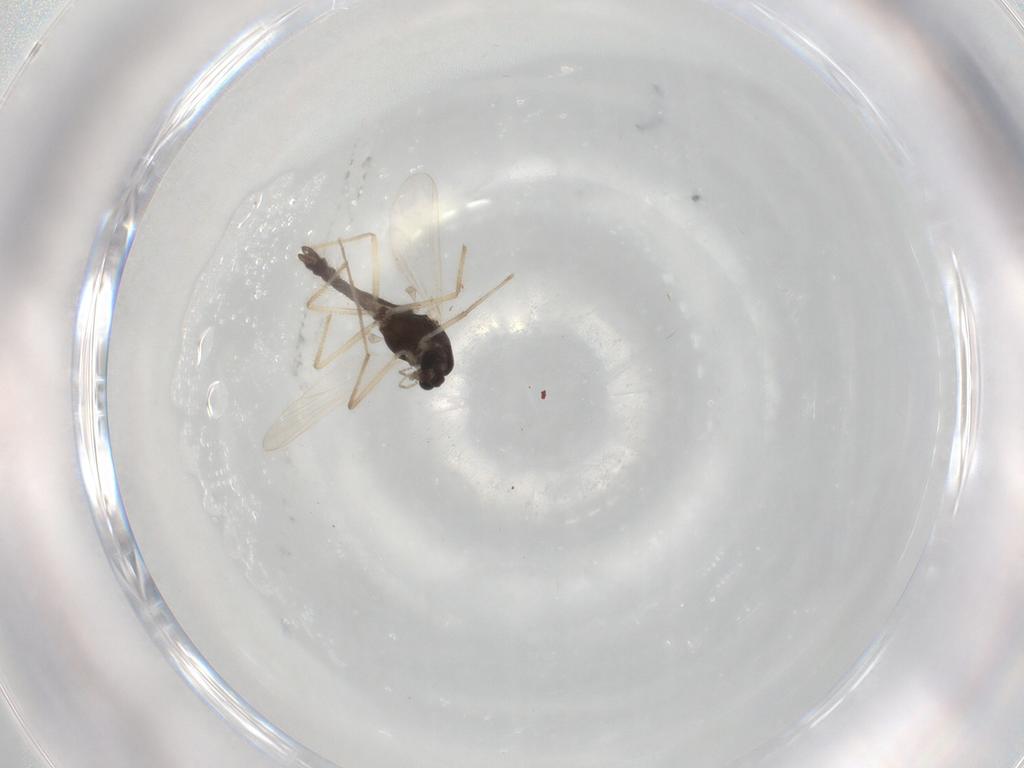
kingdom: Animalia
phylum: Arthropoda
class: Insecta
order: Diptera
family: Chironomidae
